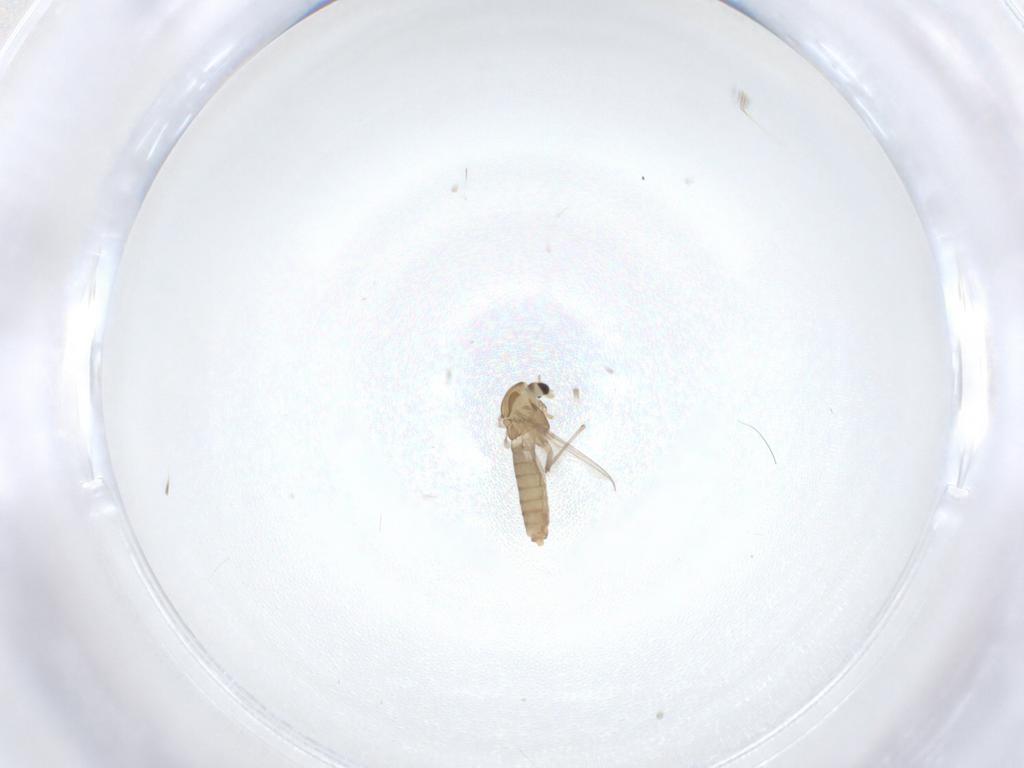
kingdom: Animalia
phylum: Arthropoda
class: Insecta
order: Diptera
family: Chironomidae
